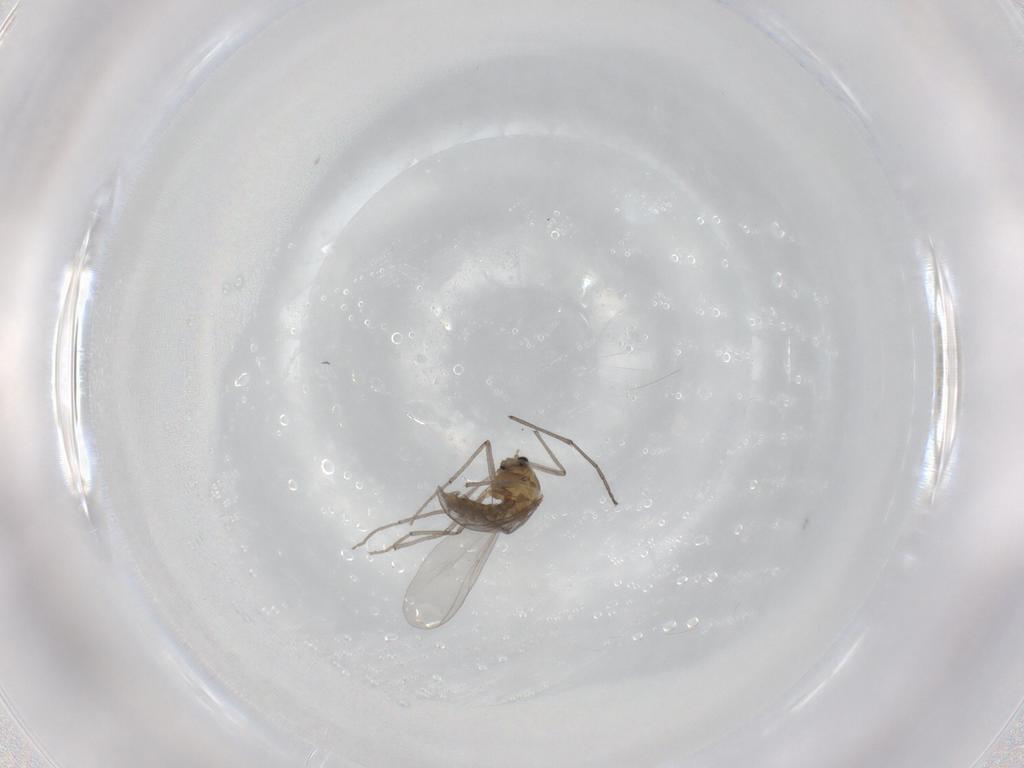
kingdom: Animalia
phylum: Arthropoda
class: Insecta
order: Diptera
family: Chironomidae
